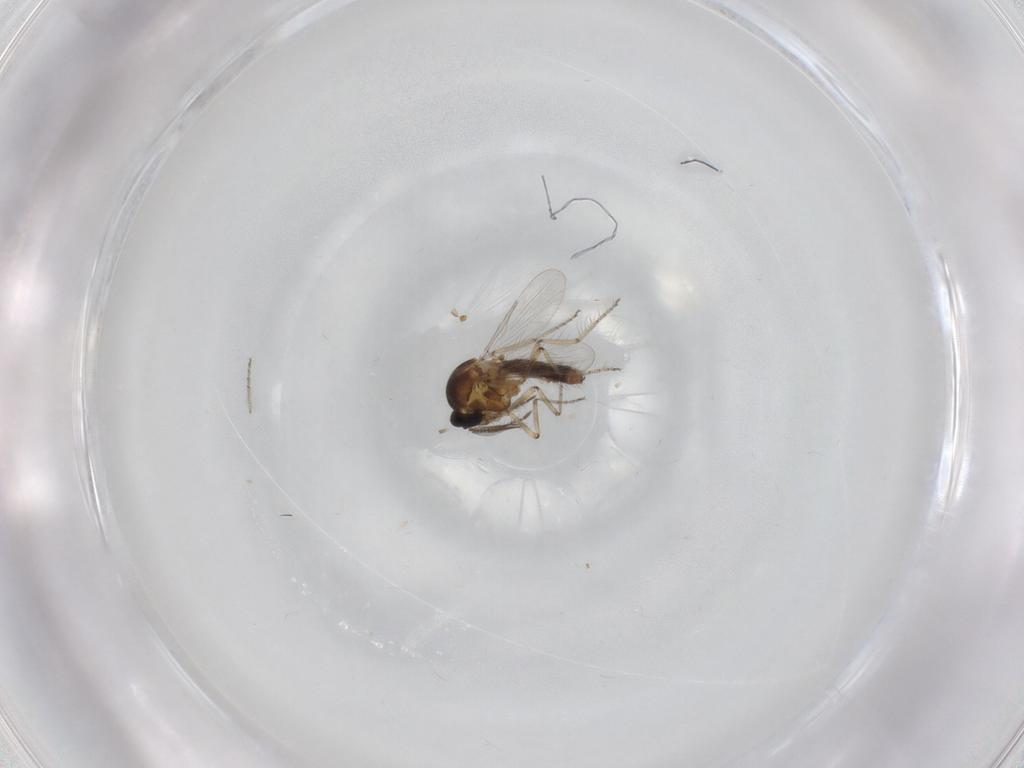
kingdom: Animalia
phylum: Arthropoda
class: Insecta
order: Diptera
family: Ceratopogonidae
